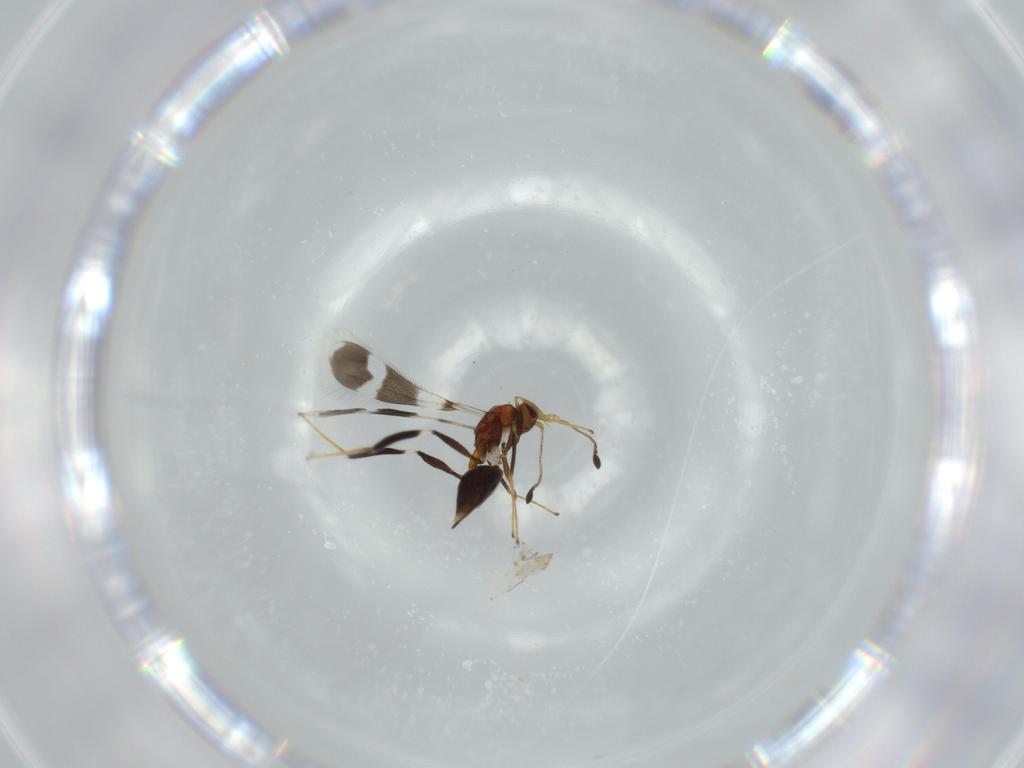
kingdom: Animalia
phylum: Arthropoda
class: Insecta
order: Hymenoptera
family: Mymaridae
